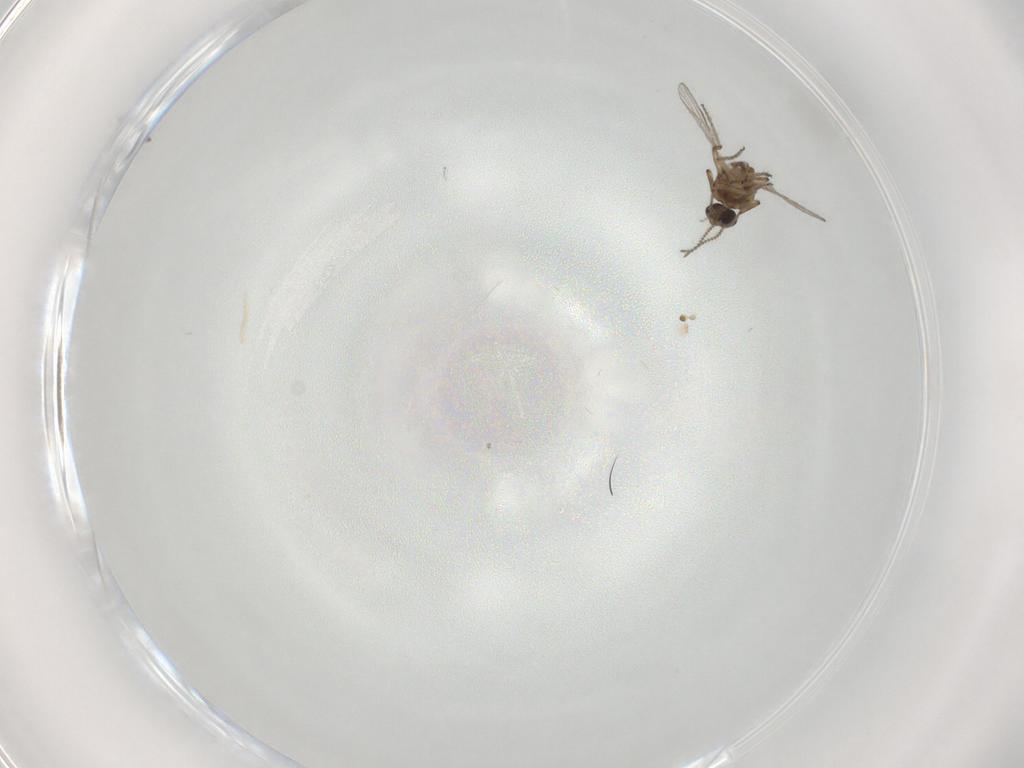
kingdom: Animalia
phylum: Arthropoda
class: Insecta
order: Diptera
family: Ceratopogonidae
